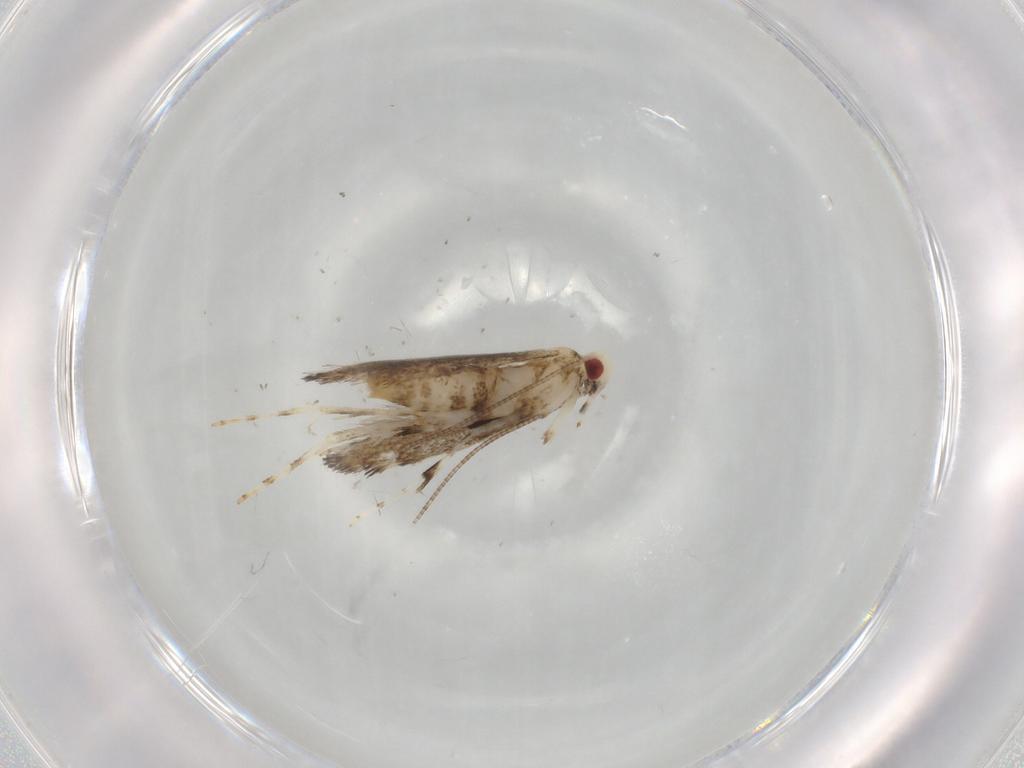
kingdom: Animalia
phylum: Arthropoda
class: Insecta
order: Lepidoptera
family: Gracillariidae
